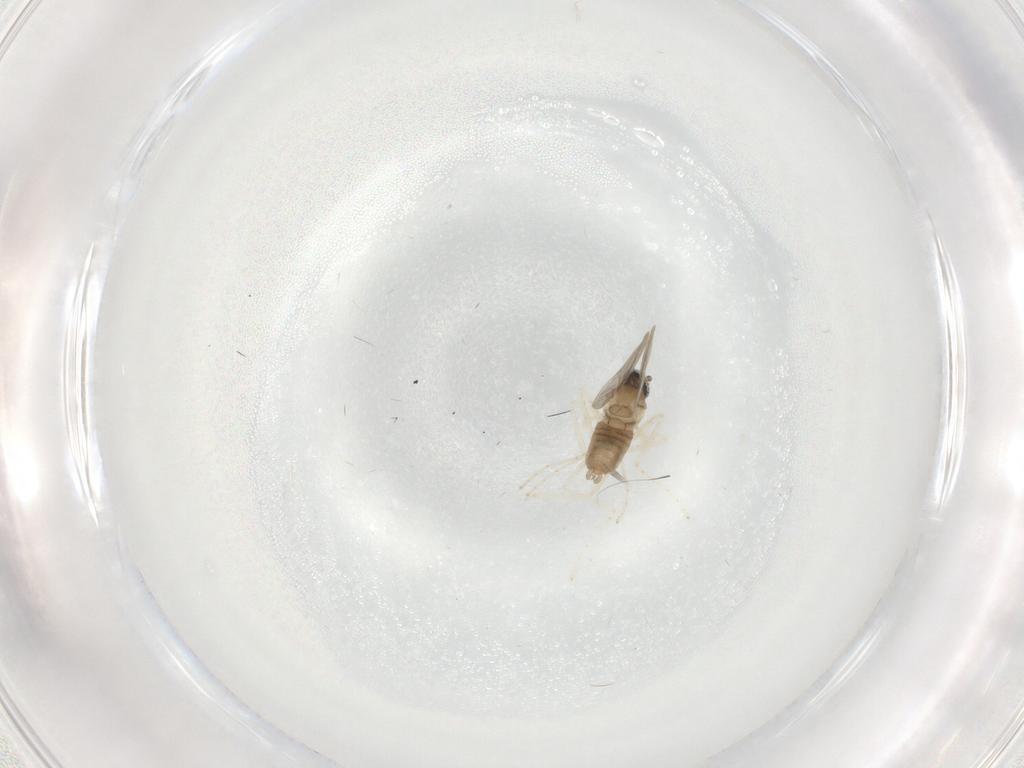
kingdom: Animalia
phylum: Arthropoda
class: Insecta
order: Diptera
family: Cecidomyiidae
